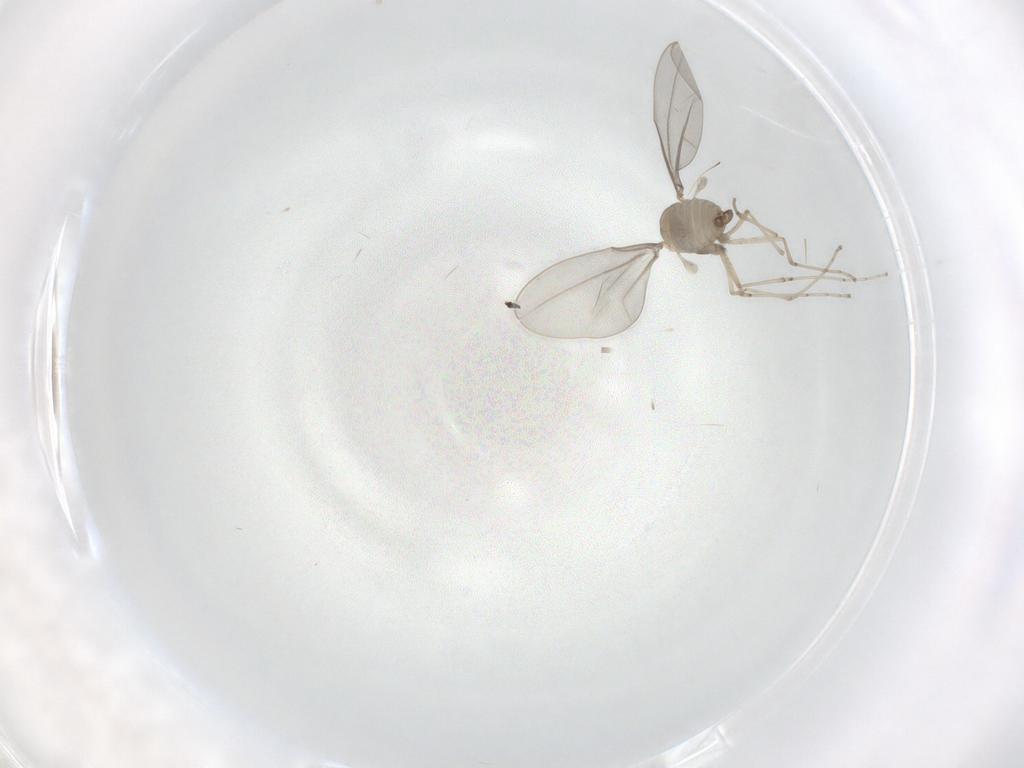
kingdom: Animalia
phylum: Arthropoda
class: Insecta
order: Diptera
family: Cecidomyiidae
